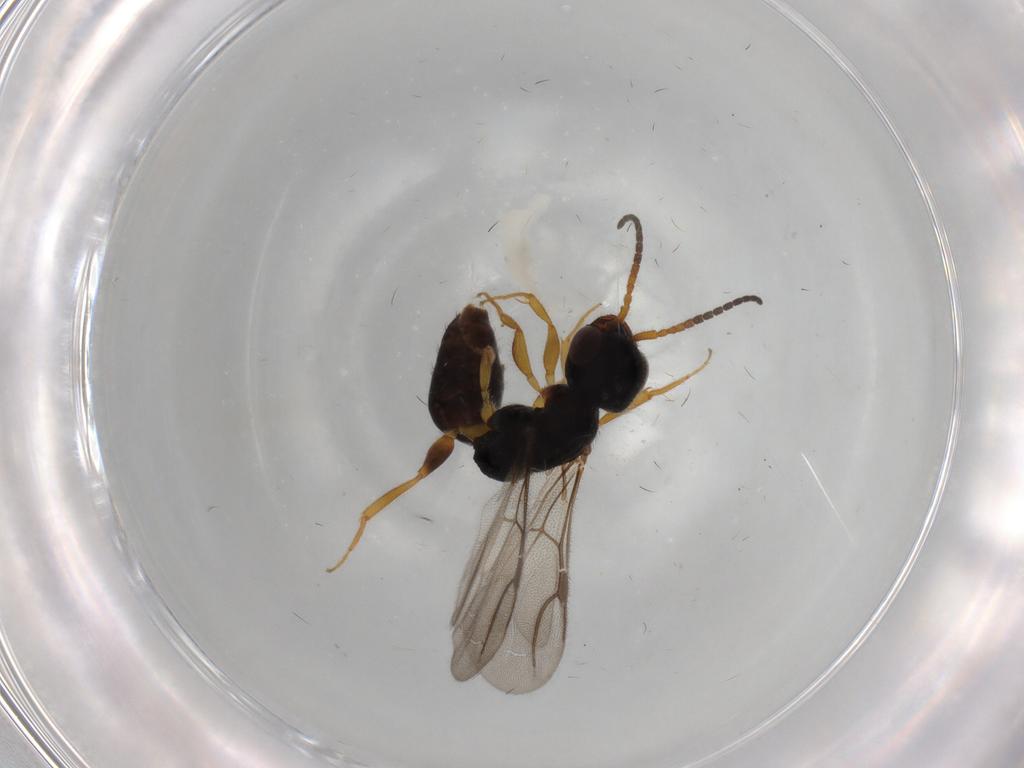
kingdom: Animalia
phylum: Arthropoda
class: Insecta
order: Hymenoptera
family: Bethylidae
